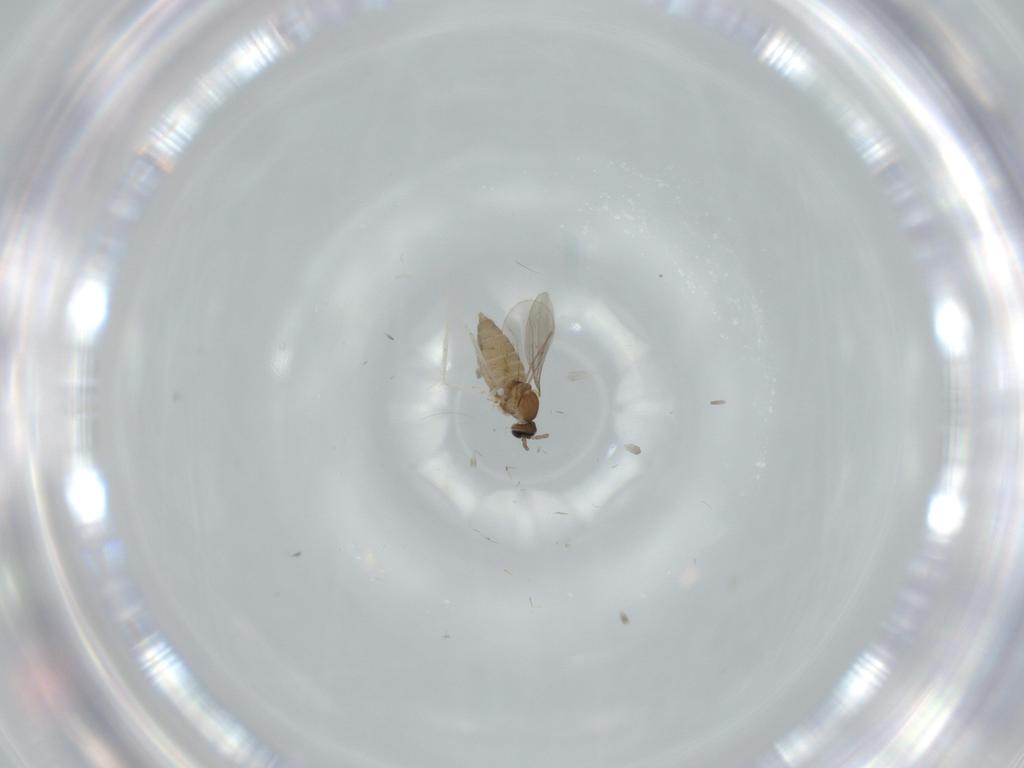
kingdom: Animalia
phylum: Arthropoda
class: Insecta
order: Diptera
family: Cecidomyiidae
